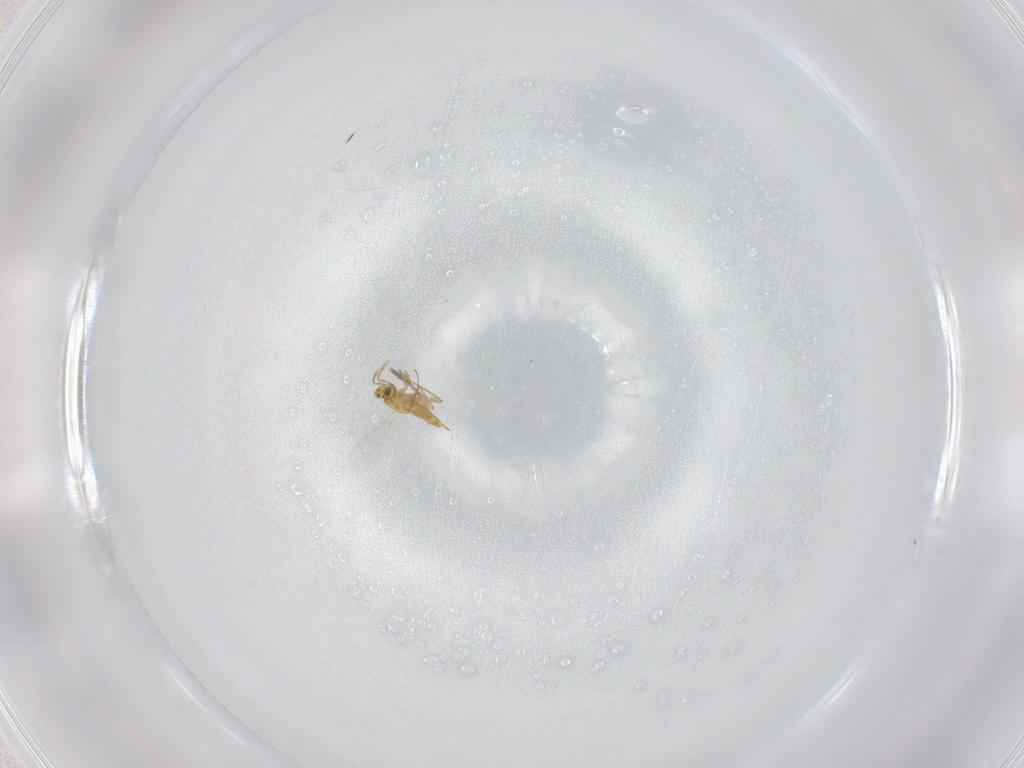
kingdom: Animalia
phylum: Arthropoda
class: Insecta
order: Hymenoptera
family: Aphelinidae
